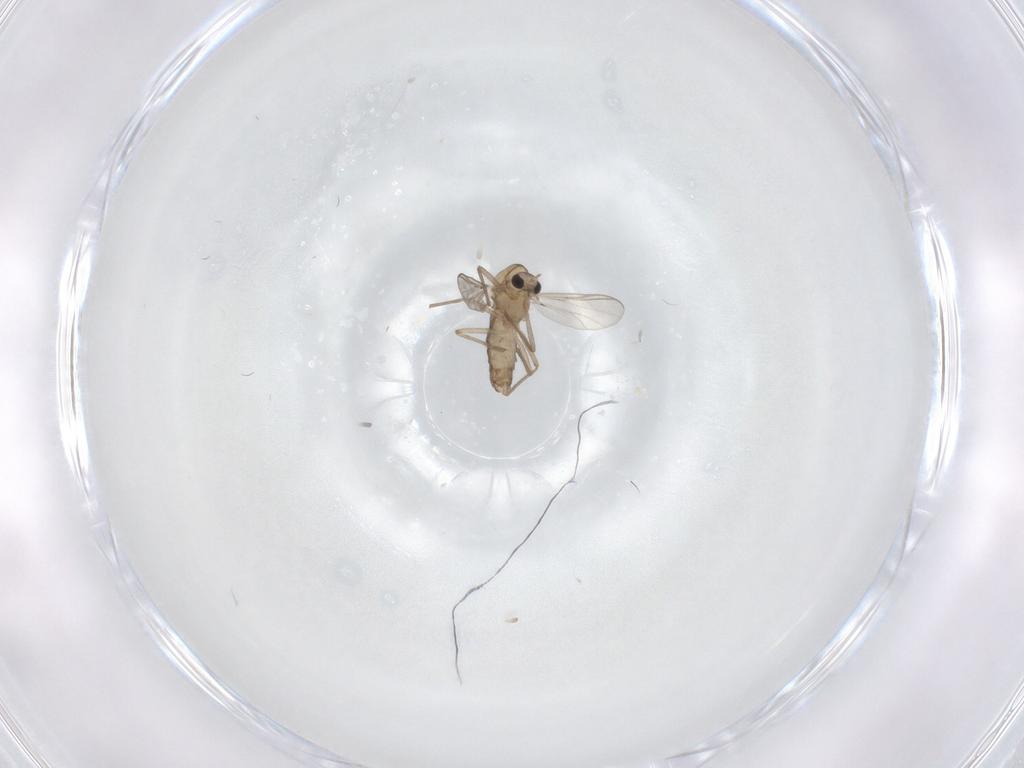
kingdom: Animalia
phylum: Arthropoda
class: Insecta
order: Diptera
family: Chironomidae
